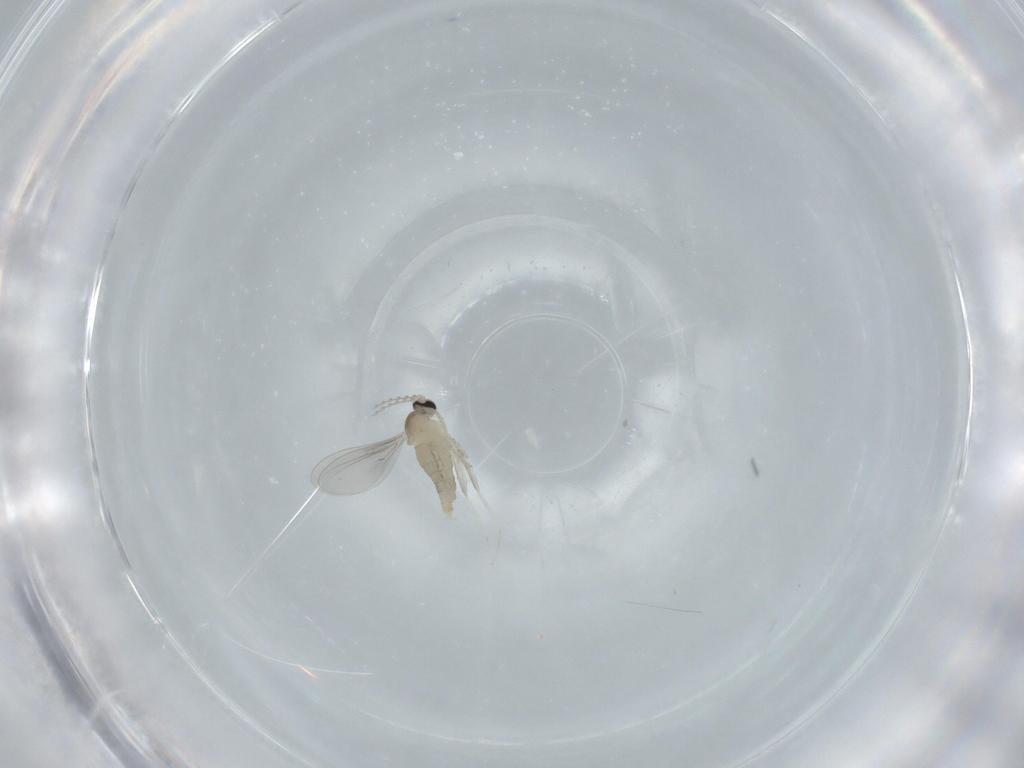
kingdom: Animalia
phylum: Arthropoda
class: Insecta
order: Diptera
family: Cecidomyiidae
